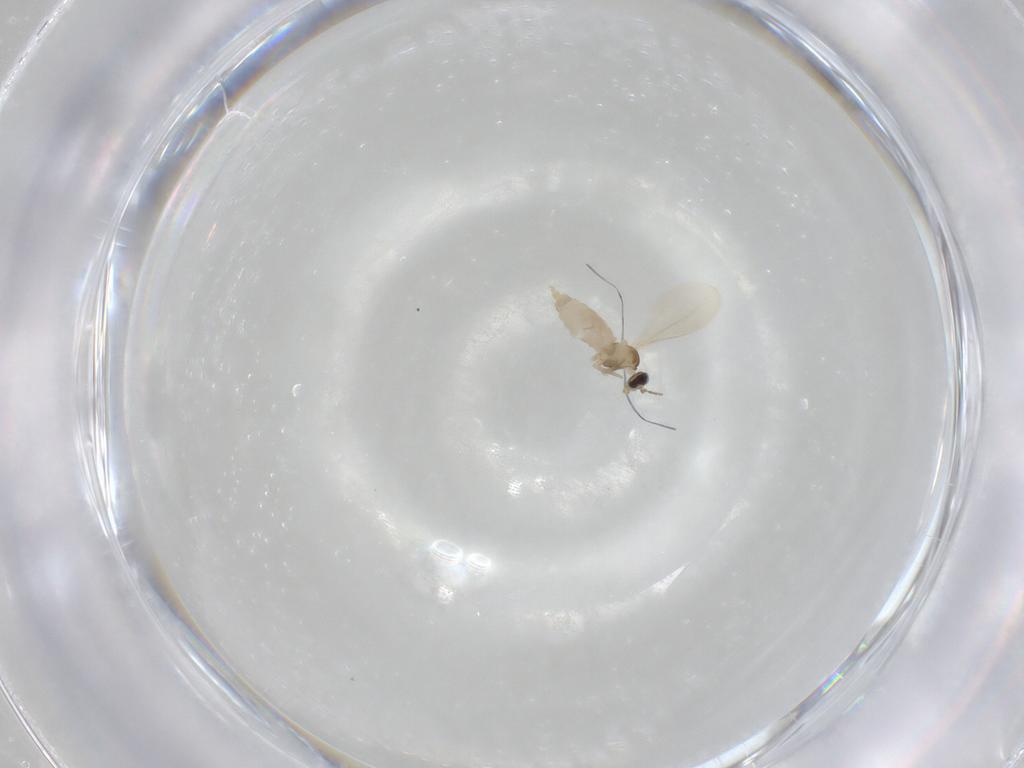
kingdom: Animalia
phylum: Arthropoda
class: Insecta
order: Diptera
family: Cecidomyiidae
